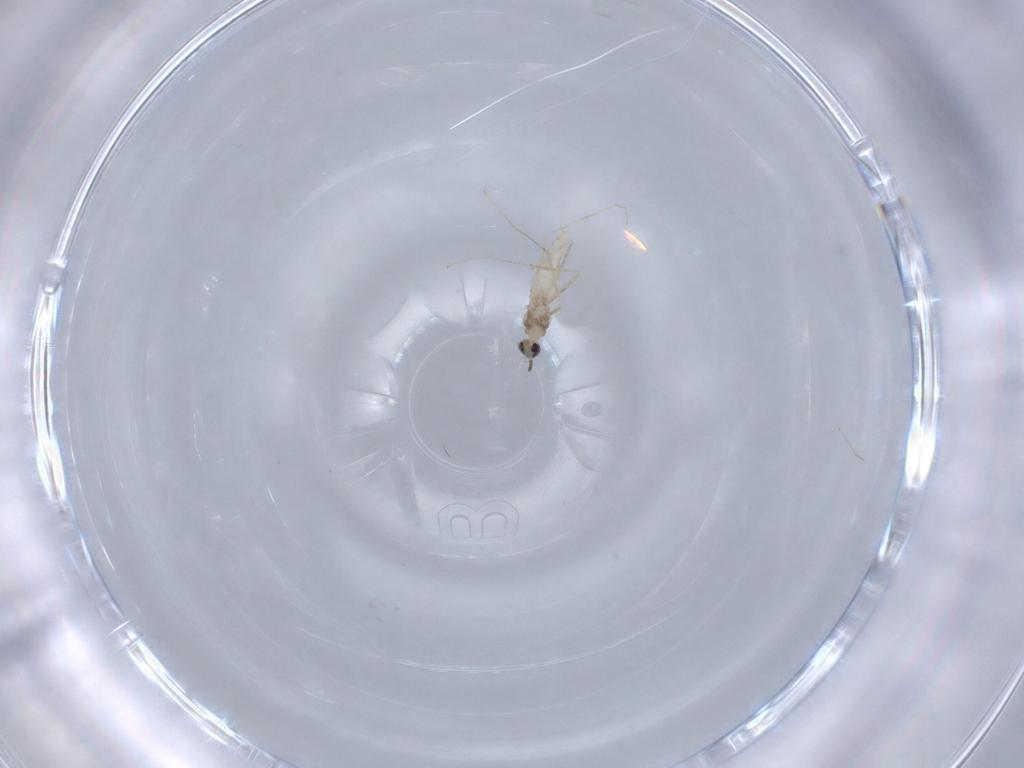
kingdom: Animalia
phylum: Arthropoda
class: Insecta
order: Diptera
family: Cecidomyiidae
